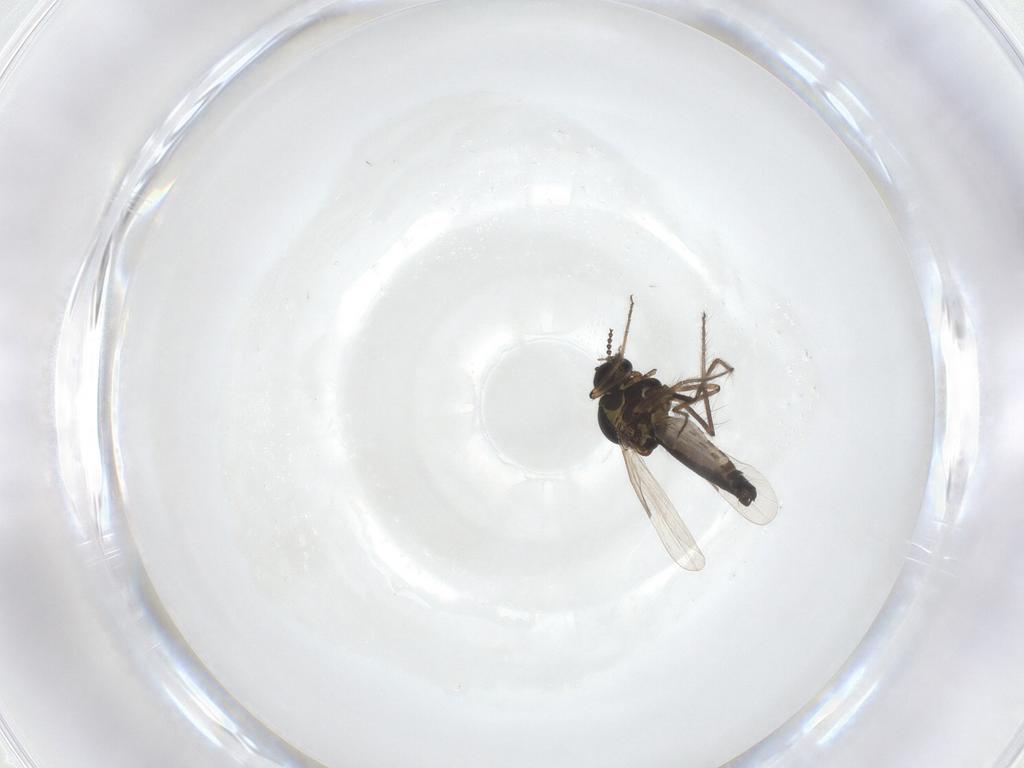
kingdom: Animalia
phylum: Arthropoda
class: Insecta
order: Diptera
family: Ceratopogonidae
